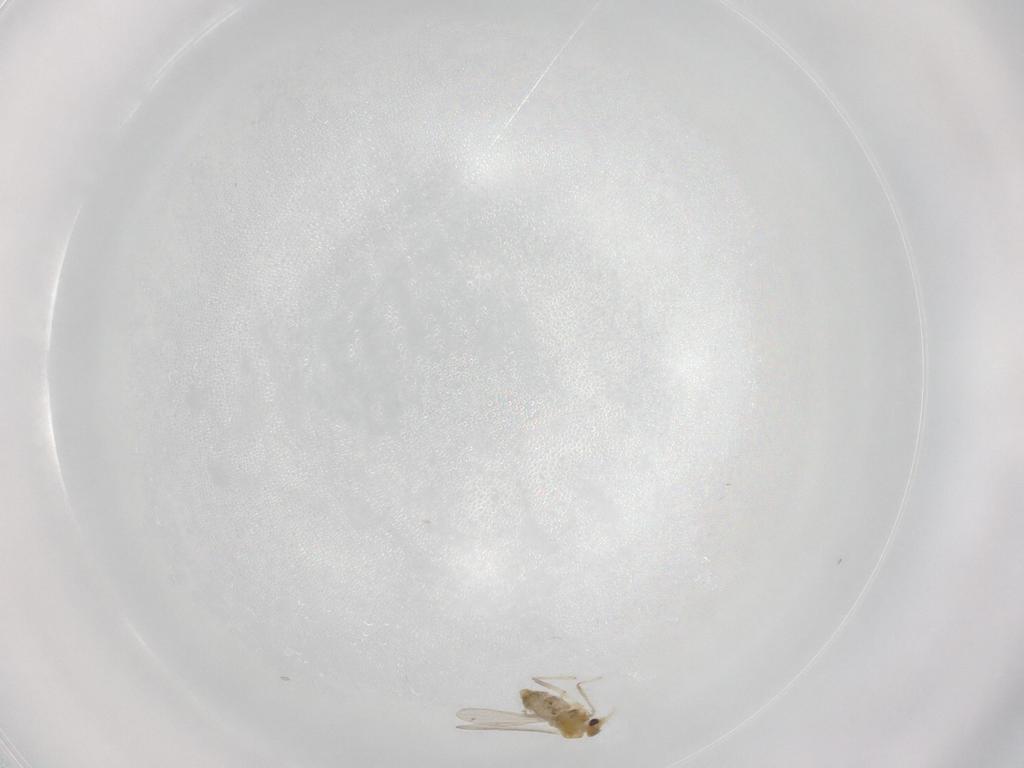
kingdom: Animalia
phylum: Arthropoda
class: Insecta
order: Diptera
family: Chironomidae
